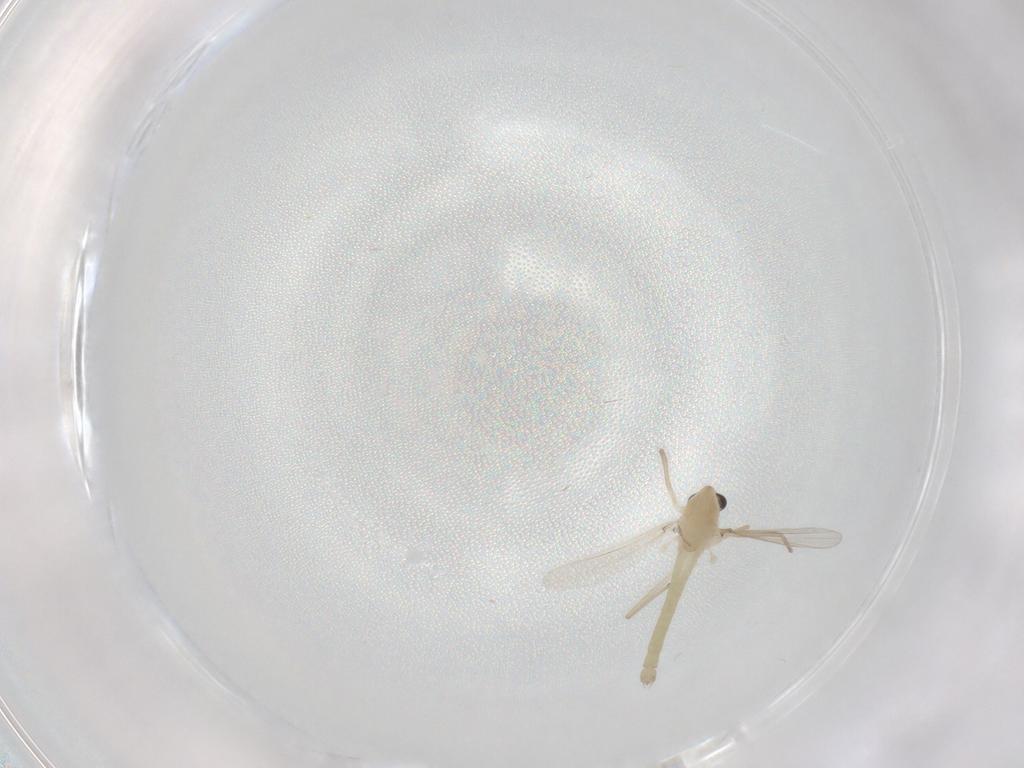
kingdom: Animalia
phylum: Arthropoda
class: Insecta
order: Diptera
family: Chironomidae
